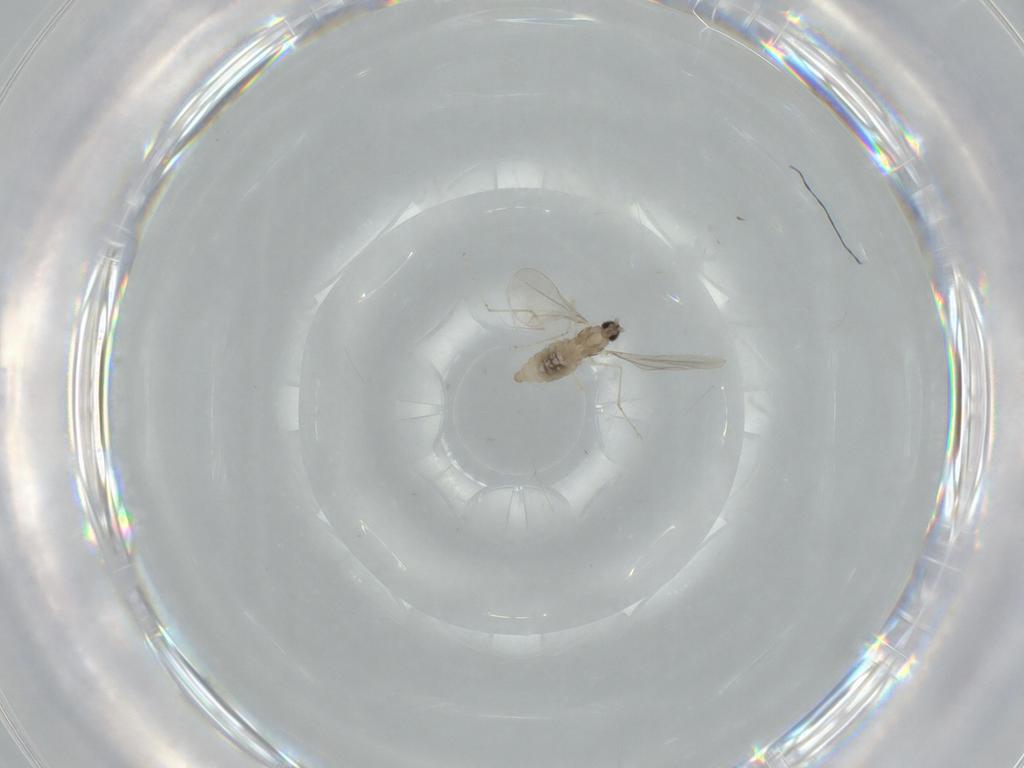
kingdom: Animalia
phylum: Arthropoda
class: Insecta
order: Diptera
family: Cecidomyiidae
